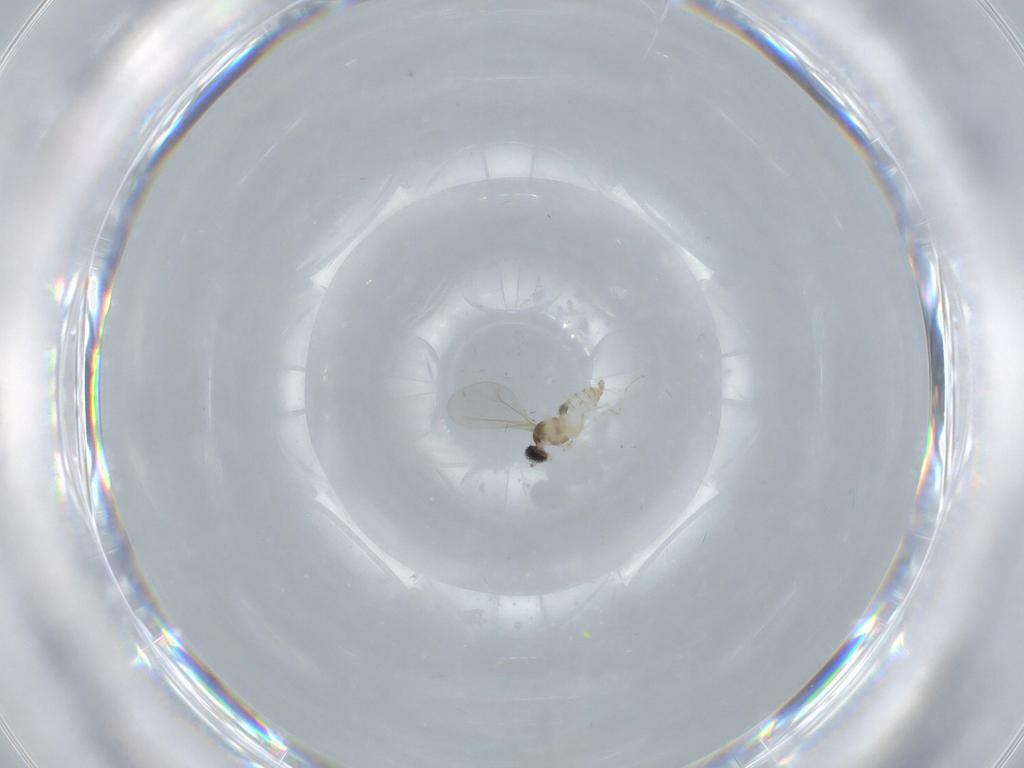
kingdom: Animalia
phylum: Arthropoda
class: Insecta
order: Diptera
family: Cecidomyiidae
